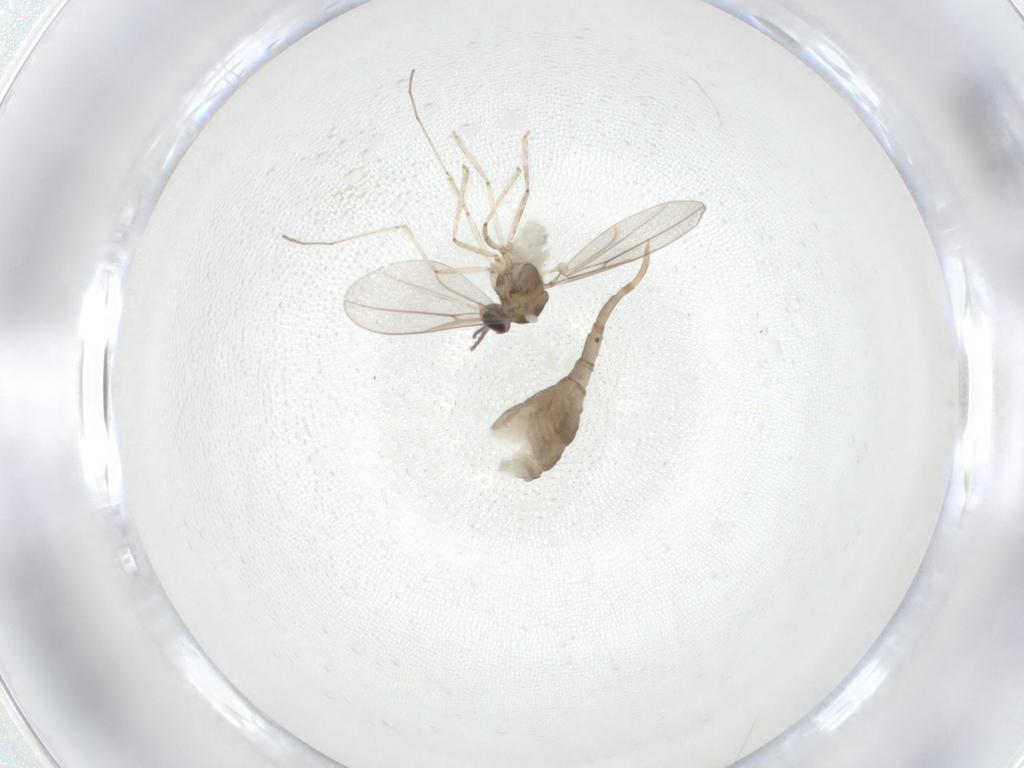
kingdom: Animalia
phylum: Arthropoda
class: Insecta
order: Diptera
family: Cecidomyiidae
